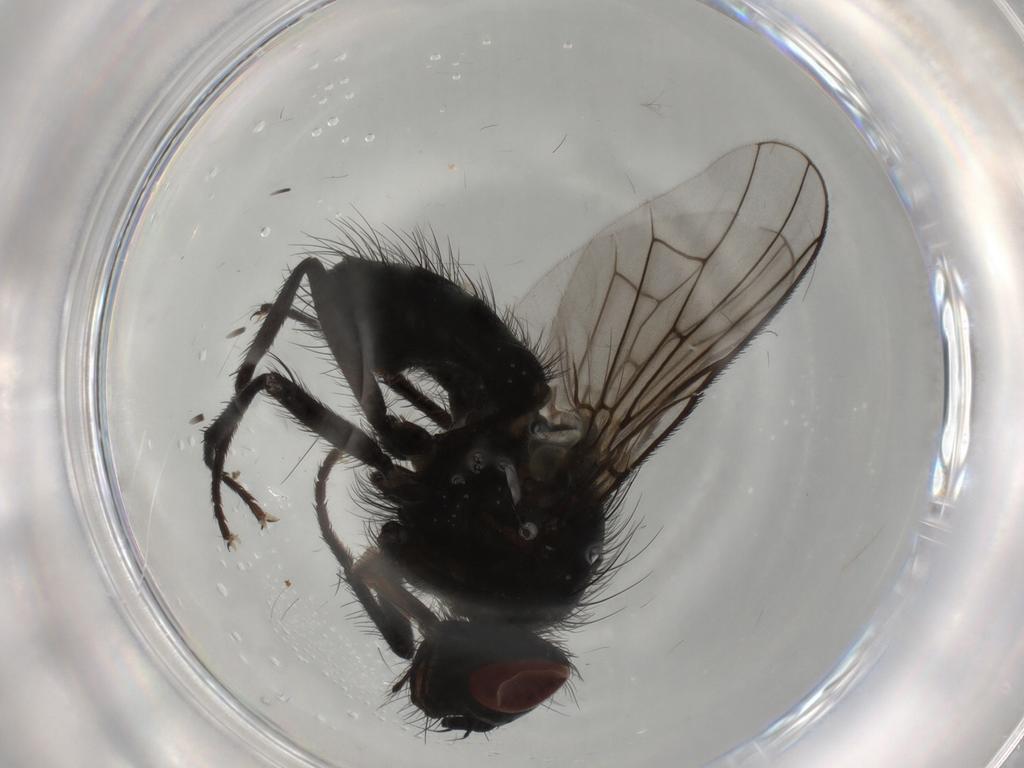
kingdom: Animalia
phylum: Arthropoda
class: Insecta
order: Diptera
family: Muscidae
